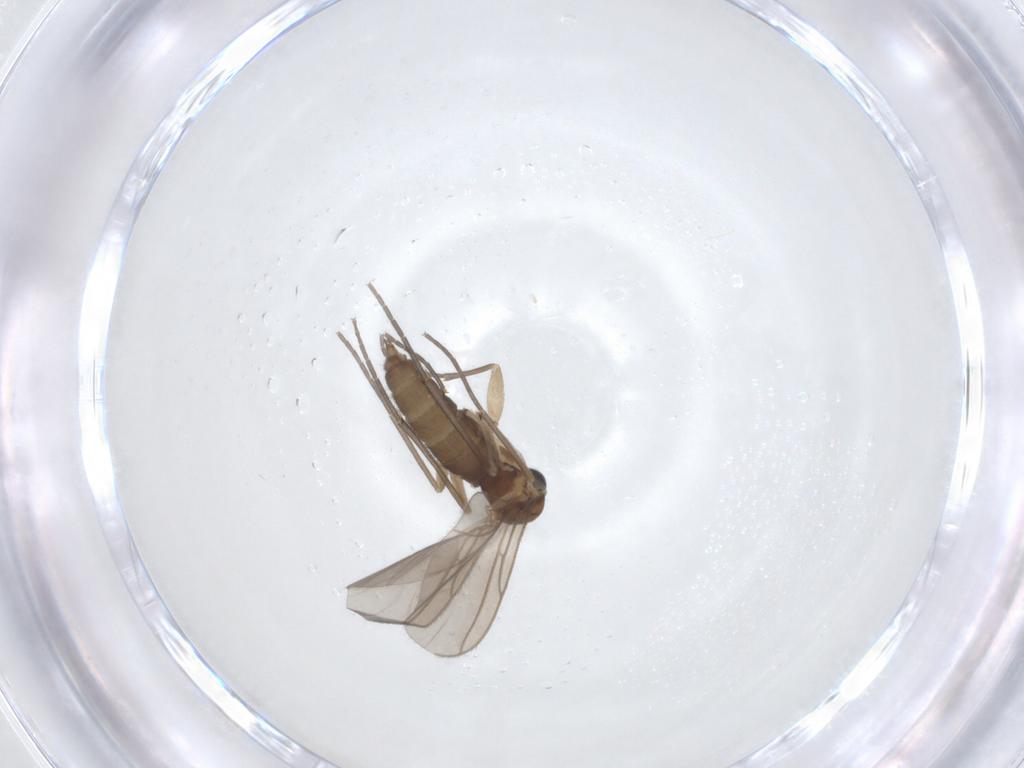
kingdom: Animalia
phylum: Arthropoda
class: Insecta
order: Diptera
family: Sciaridae
